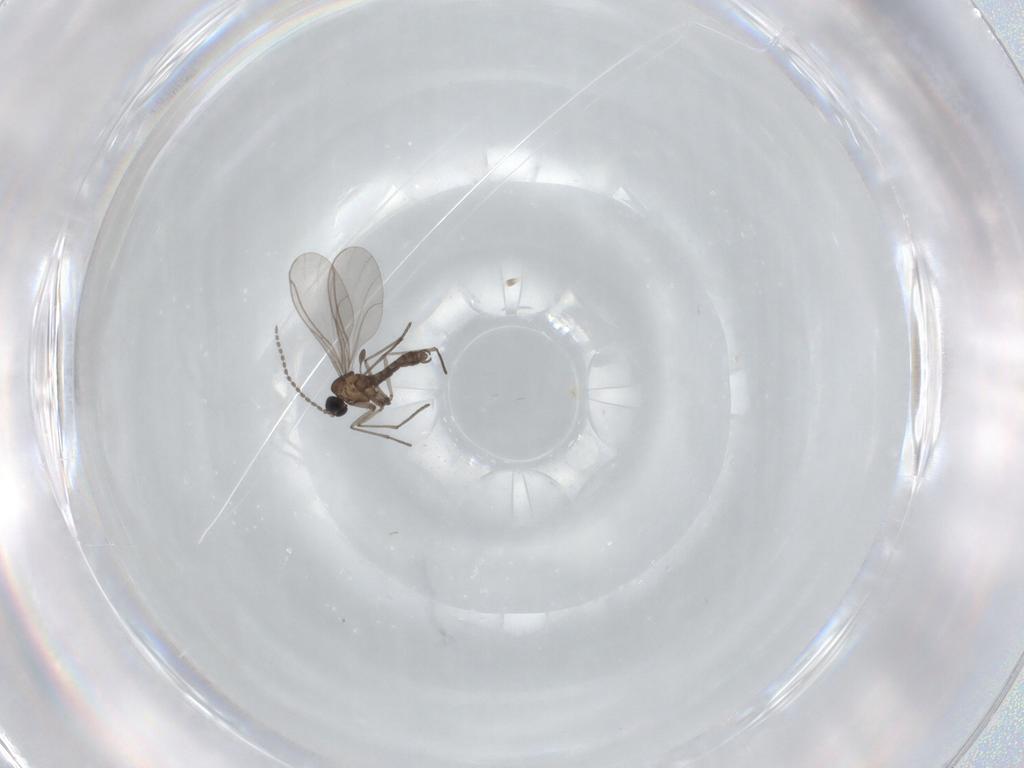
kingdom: Animalia
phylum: Arthropoda
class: Insecta
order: Diptera
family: Sciaridae
